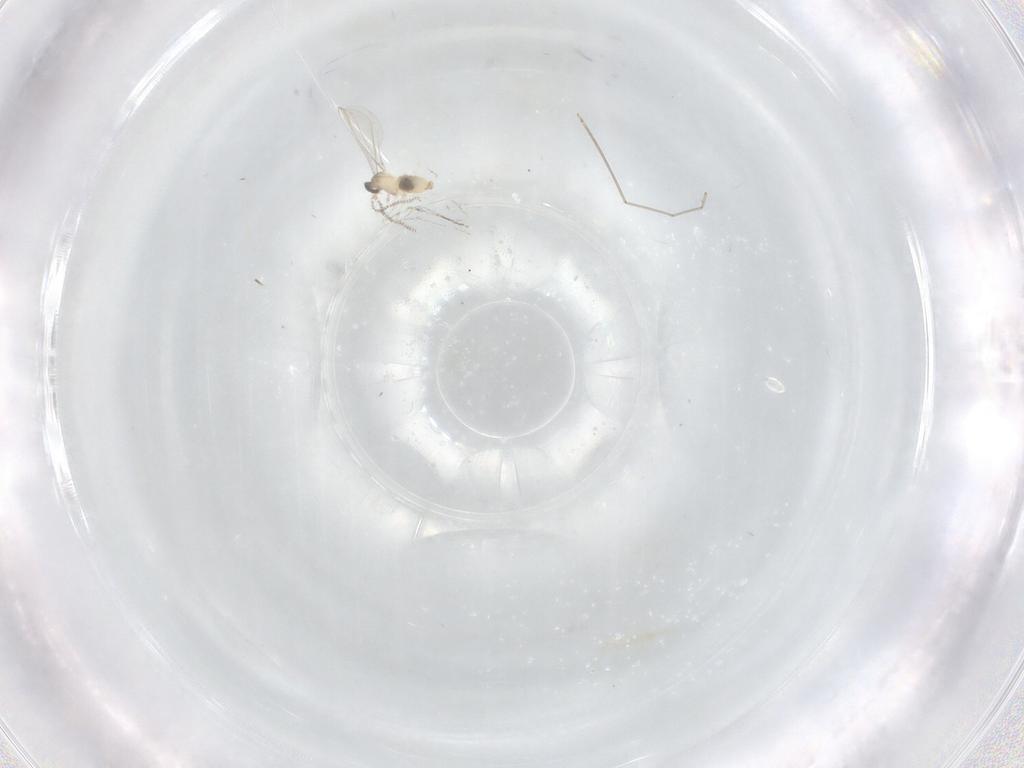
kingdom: Animalia
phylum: Arthropoda
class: Insecta
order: Diptera
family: Cecidomyiidae
